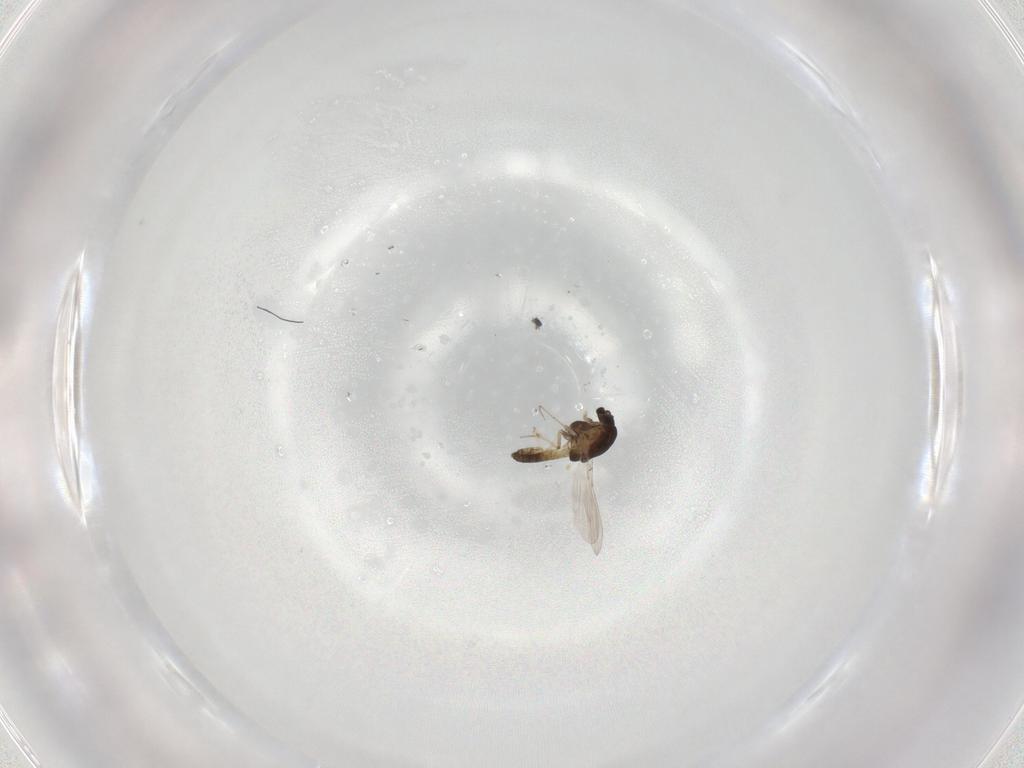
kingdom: Animalia
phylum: Arthropoda
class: Insecta
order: Diptera
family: Chironomidae
